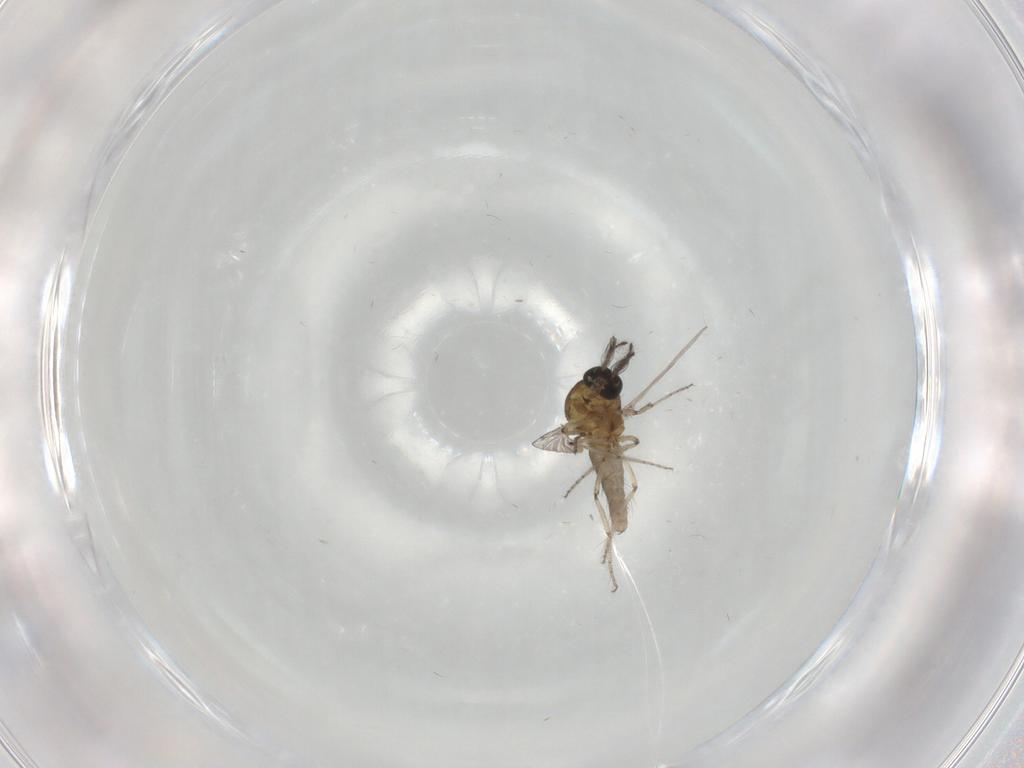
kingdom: Animalia
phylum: Arthropoda
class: Insecta
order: Diptera
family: Ceratopogonidae
